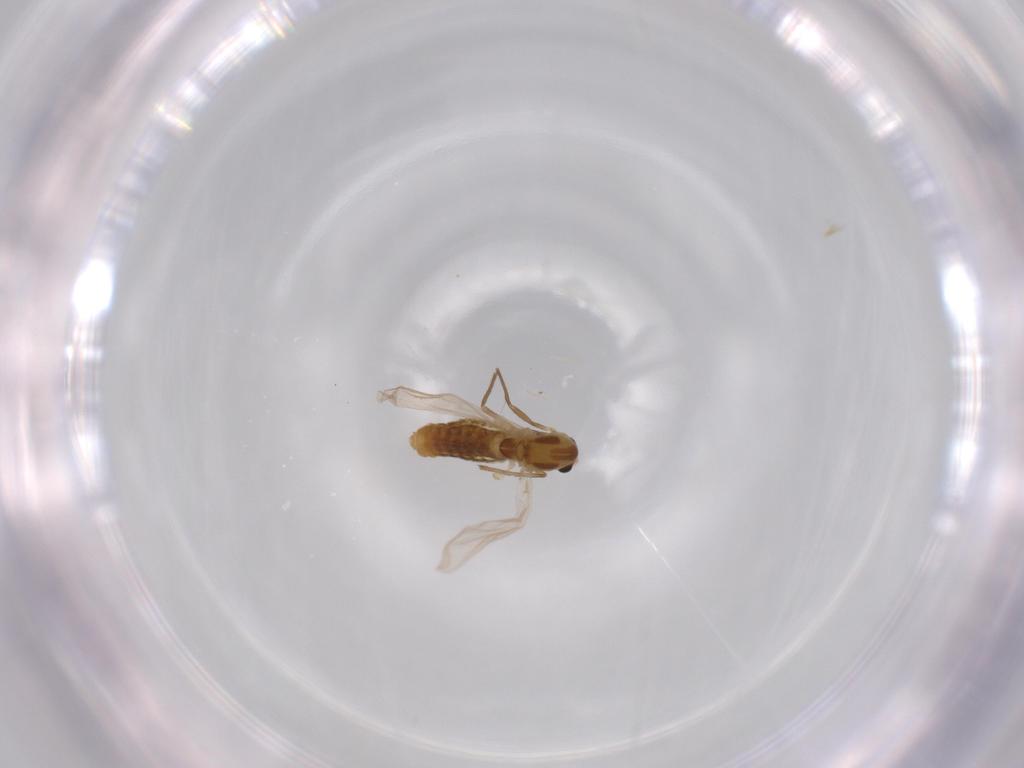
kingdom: Animalia
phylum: Arthropoda
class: Insecta
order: Diptera
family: Chironomidae
